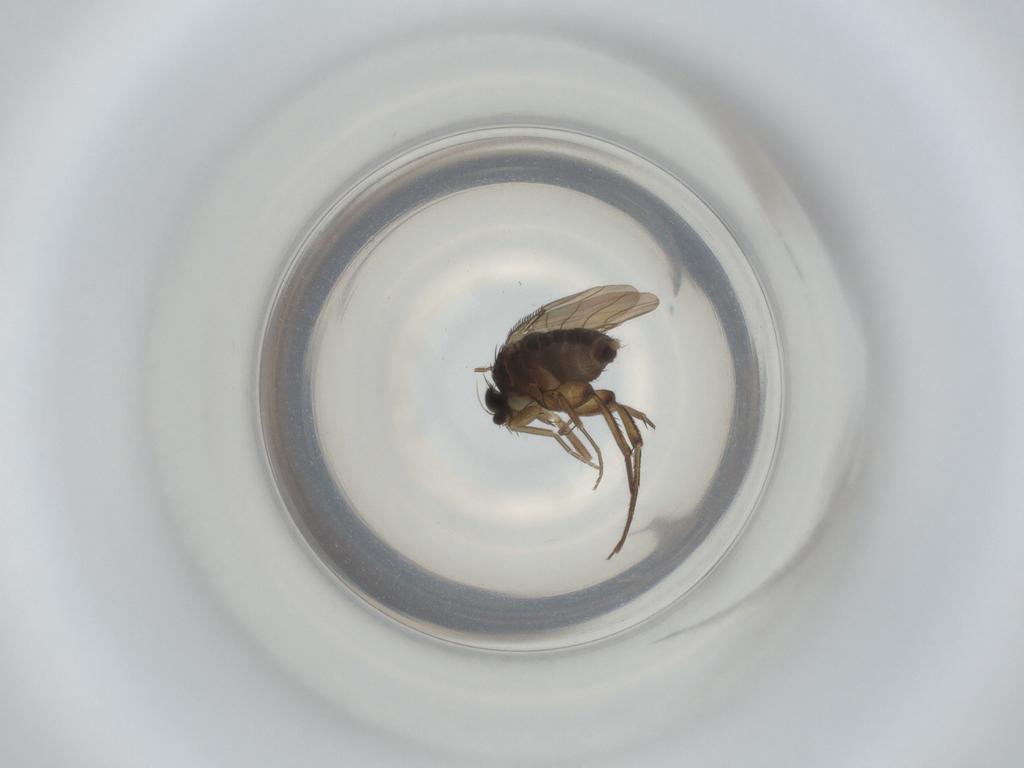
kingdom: Animalia
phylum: Arthropoda
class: Insecta
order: Diptera
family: Phoridae
